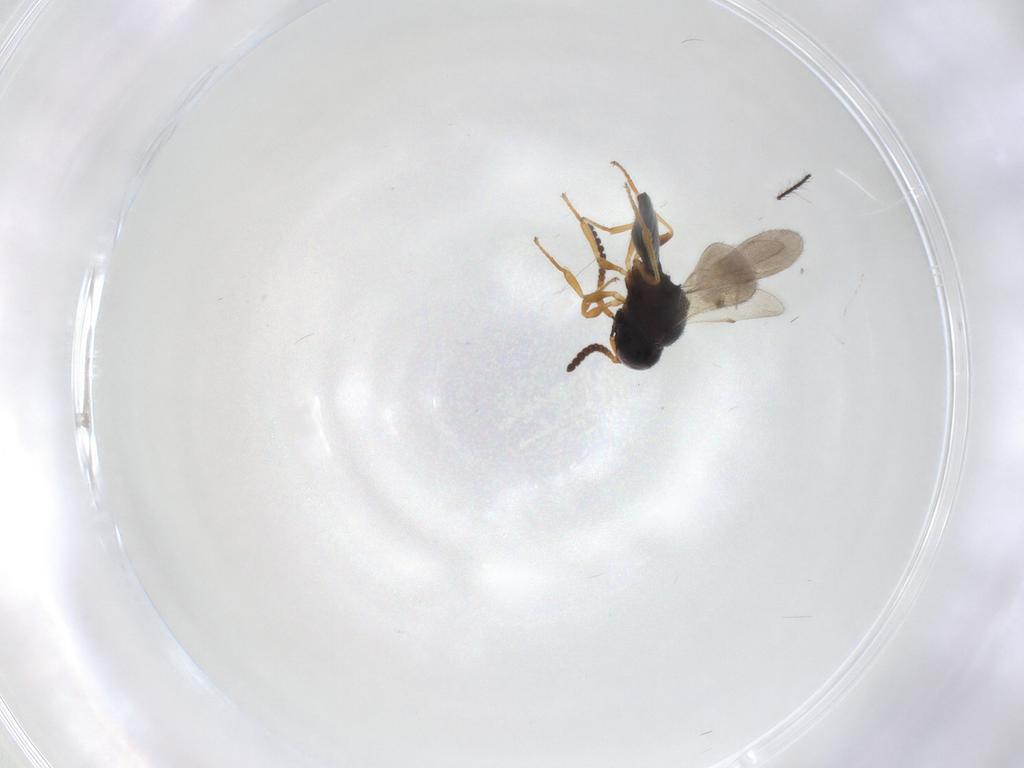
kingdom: Animalia
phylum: Arthropoda
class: Insecta
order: Hymenoptera
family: Scelionidae
